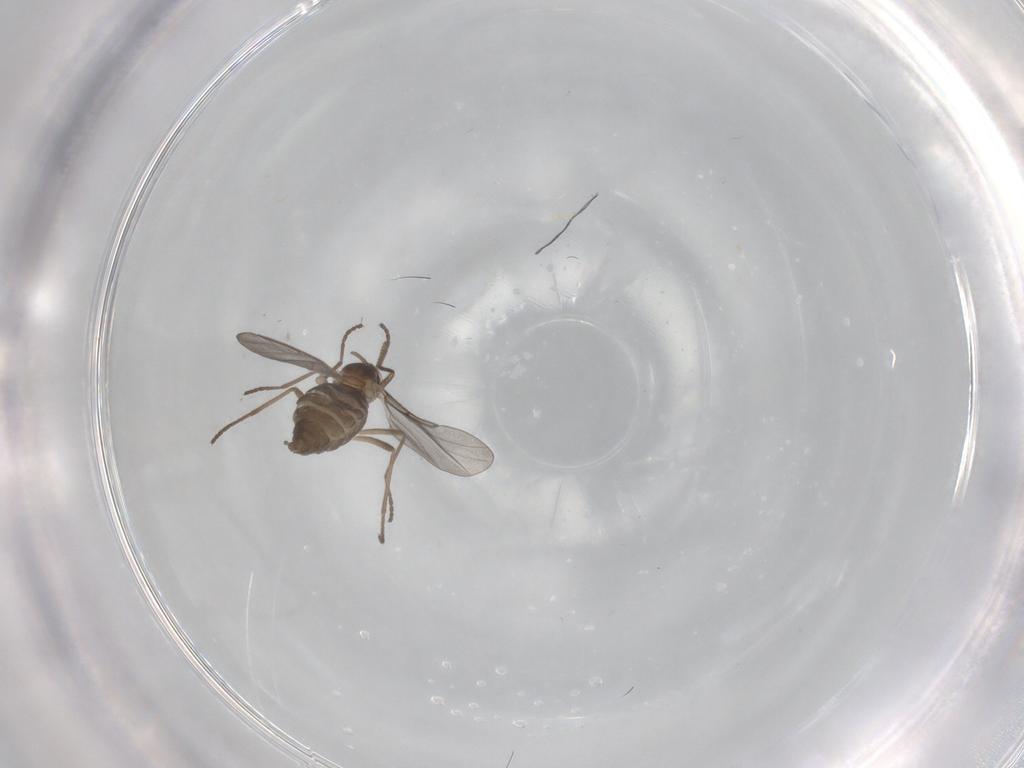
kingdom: Animalia
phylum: Arthropoda
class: Insecta
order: Diptera
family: Cecidomyiidae
